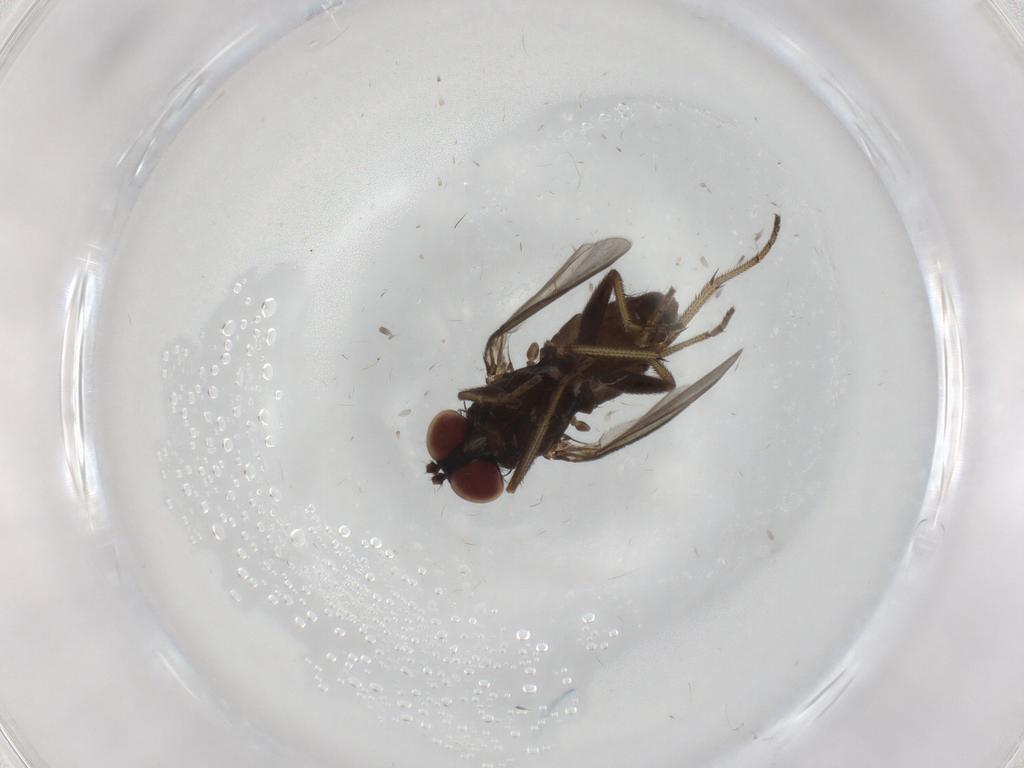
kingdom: Animalia
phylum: Arthropoda
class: Insecta
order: Diptera
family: Dolichopodidae
